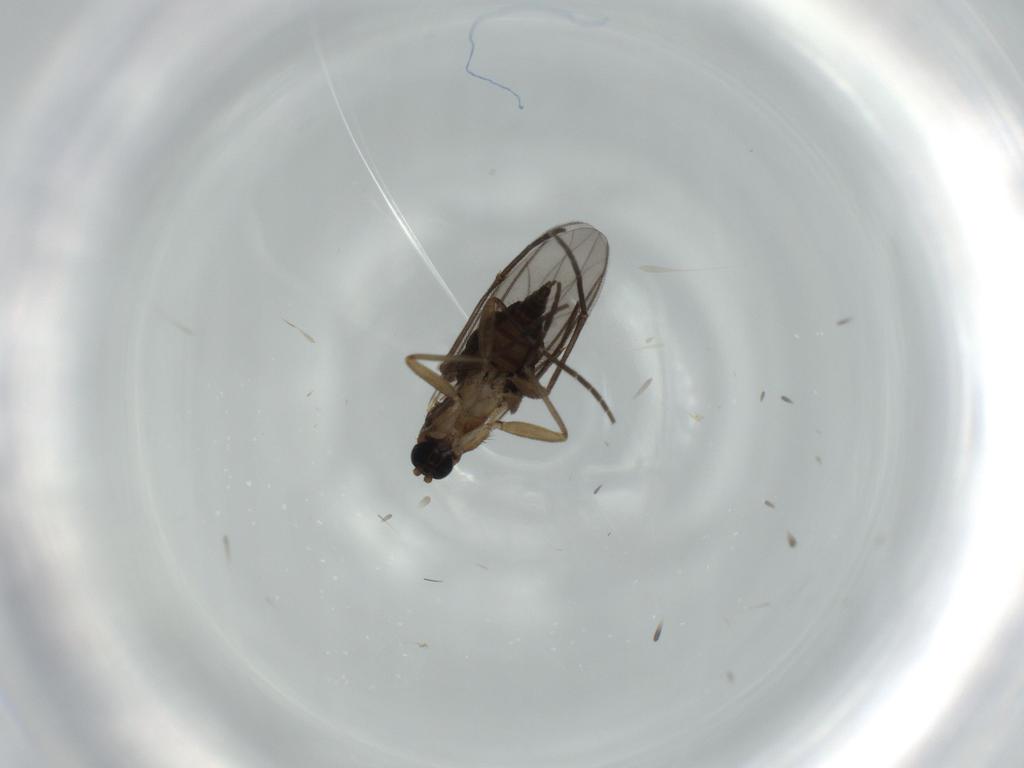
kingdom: Animalia
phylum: Arthropoda
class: Insecta
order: Diptera
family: Sciaridae
